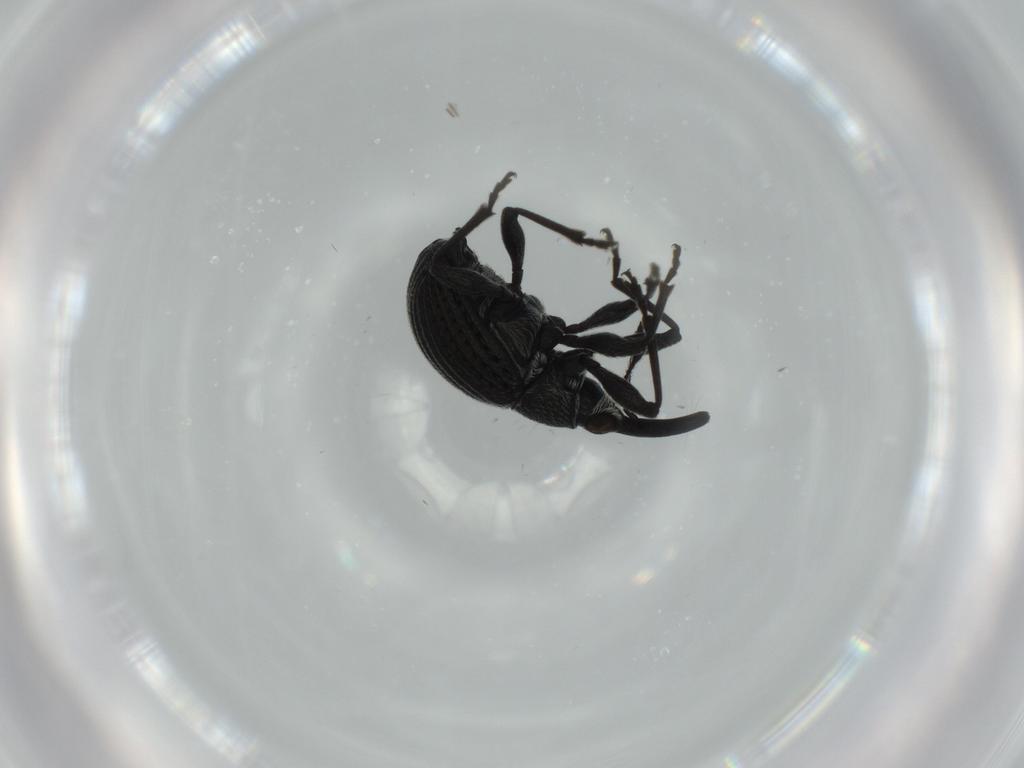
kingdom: Animalia
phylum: Arthropoda
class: Insecta
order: Coleoptera
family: Brentidae
